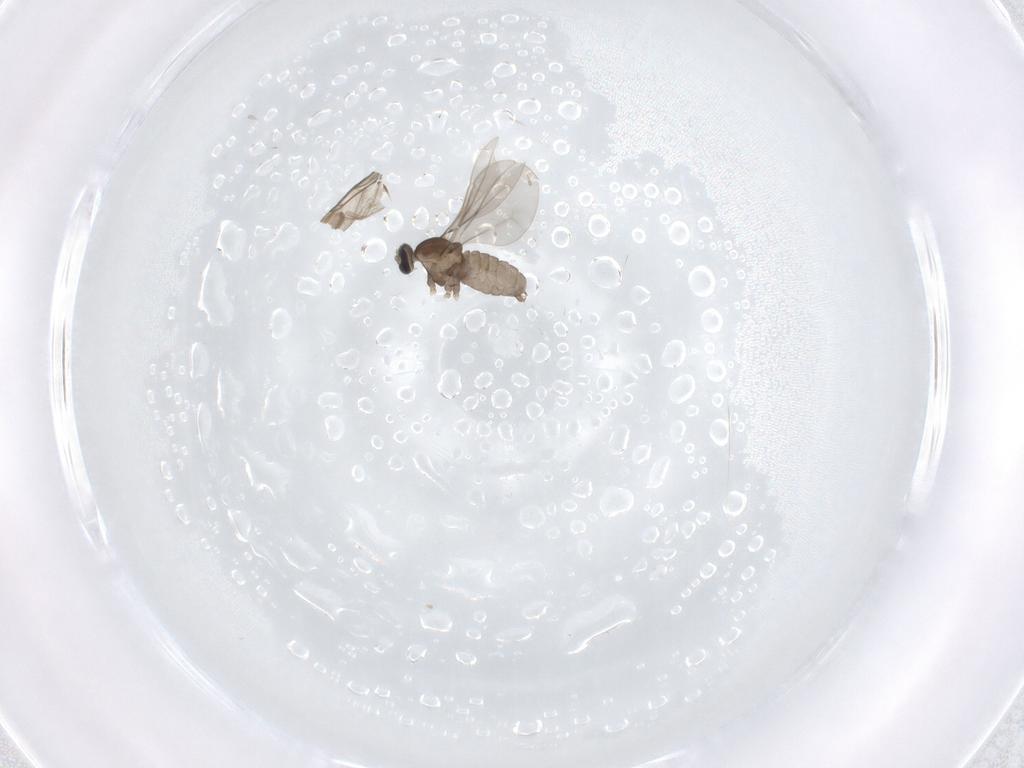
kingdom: Animalia
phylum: Arthropoda
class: Insecta
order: Diptera
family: Cecidomyiidae
